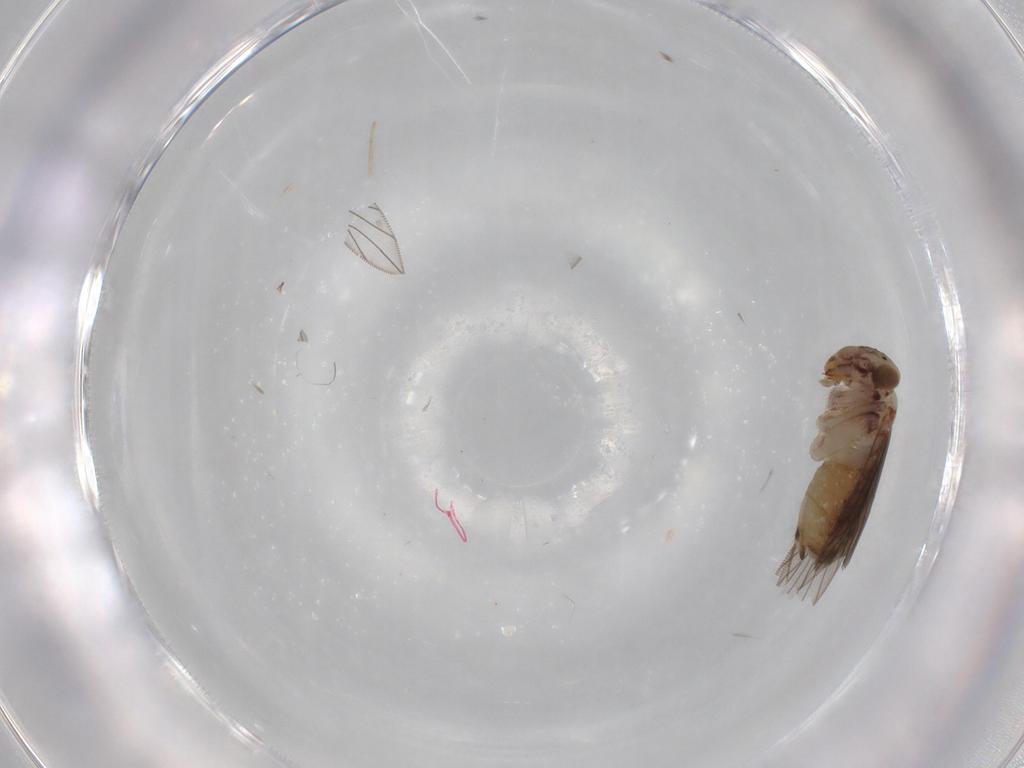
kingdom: Animalia
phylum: Arthropoda
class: Insecta
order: Psocodea
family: Lepidopsocidae
